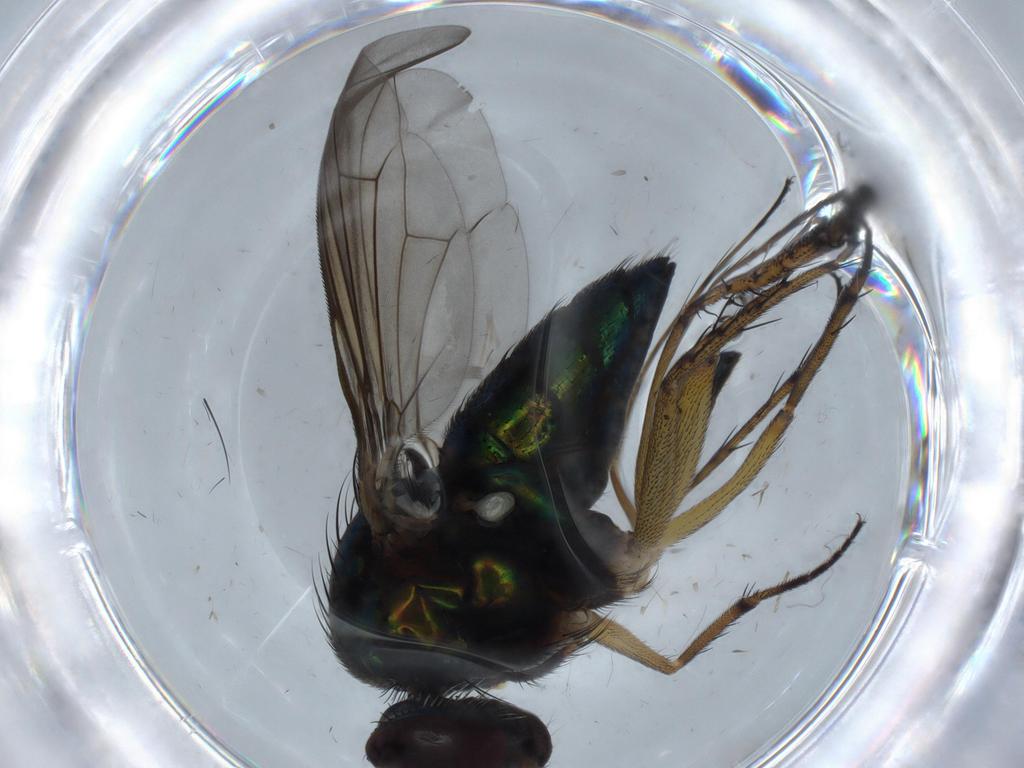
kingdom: Animalia
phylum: Arthropoda
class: Insecta
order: Diptera
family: Dolichopodidae
